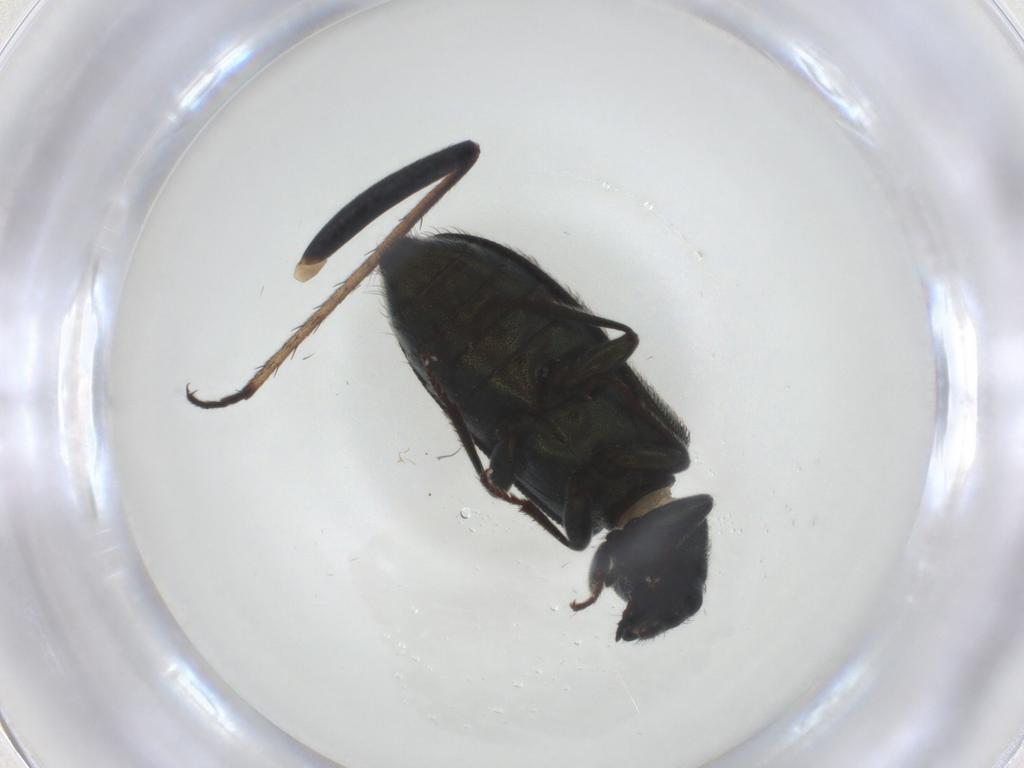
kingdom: Animalia
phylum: Arthropoda
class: Insecta
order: Coleoptera
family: Melyridae
